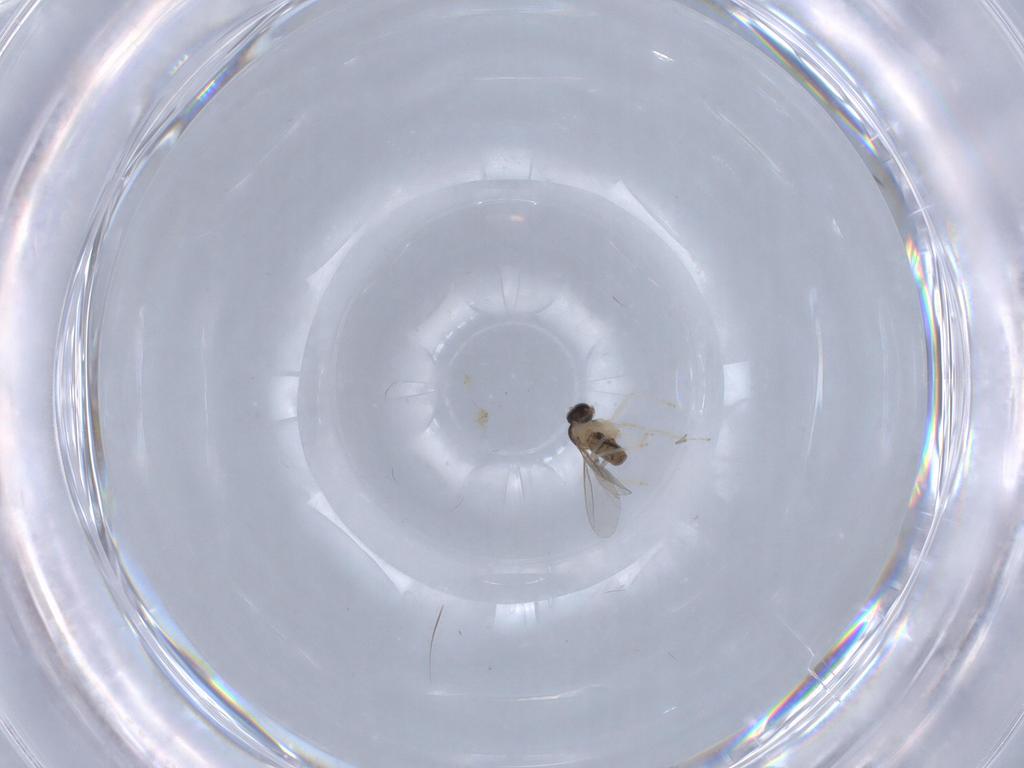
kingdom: Animalia
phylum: Arthropoda
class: Insecta
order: Diptera
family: Cecidomyiidae
